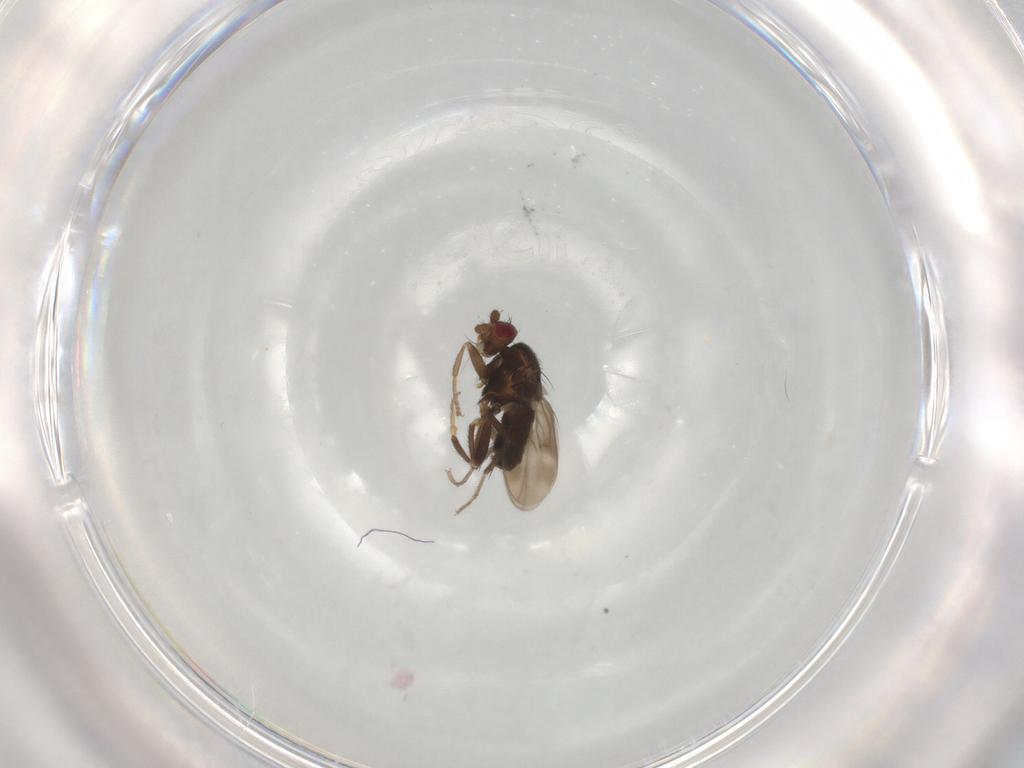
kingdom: Animalia
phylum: Arthropoda
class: Insecta
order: Diptera
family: Sphaeroceridae
